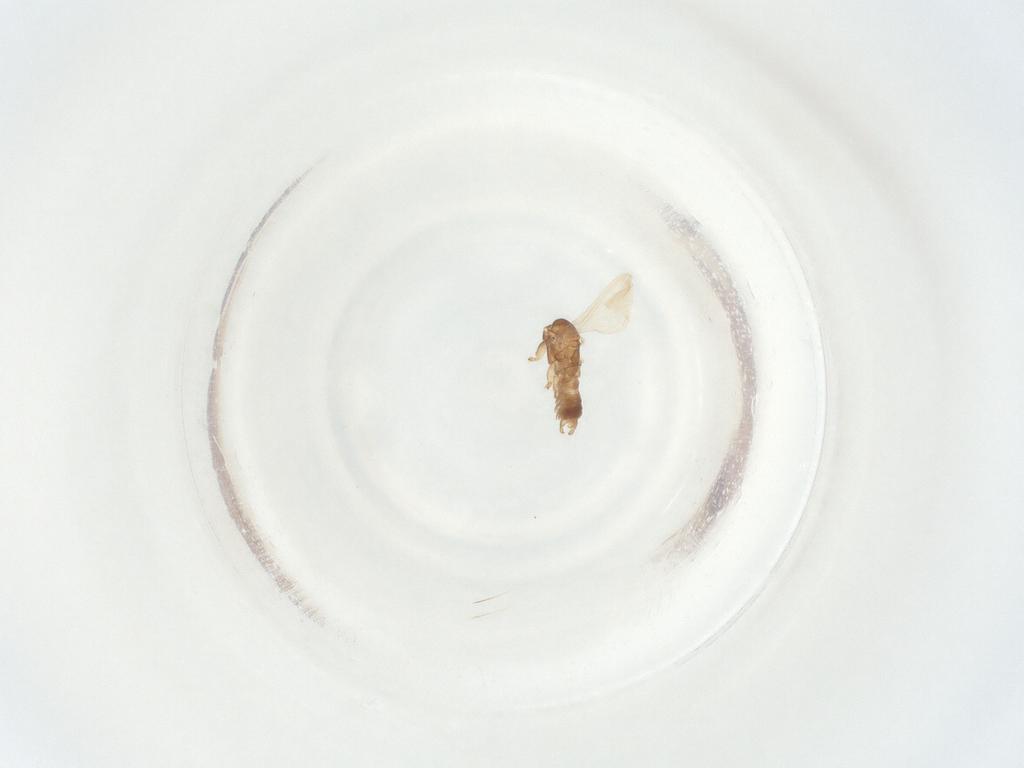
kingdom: Animalia
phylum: Arthropoda
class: Insecta
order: Diptera
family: Sciaridae
